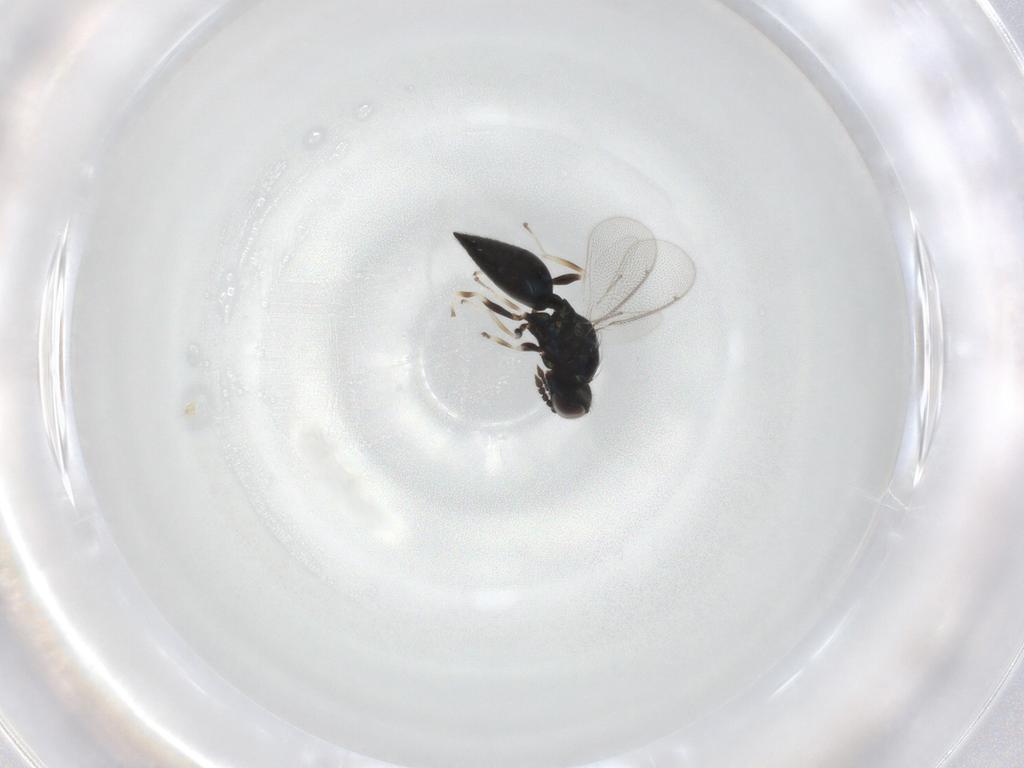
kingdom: Animalia
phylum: Arthropoda
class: Insecta
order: Hymenoptera
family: Eulophidae
